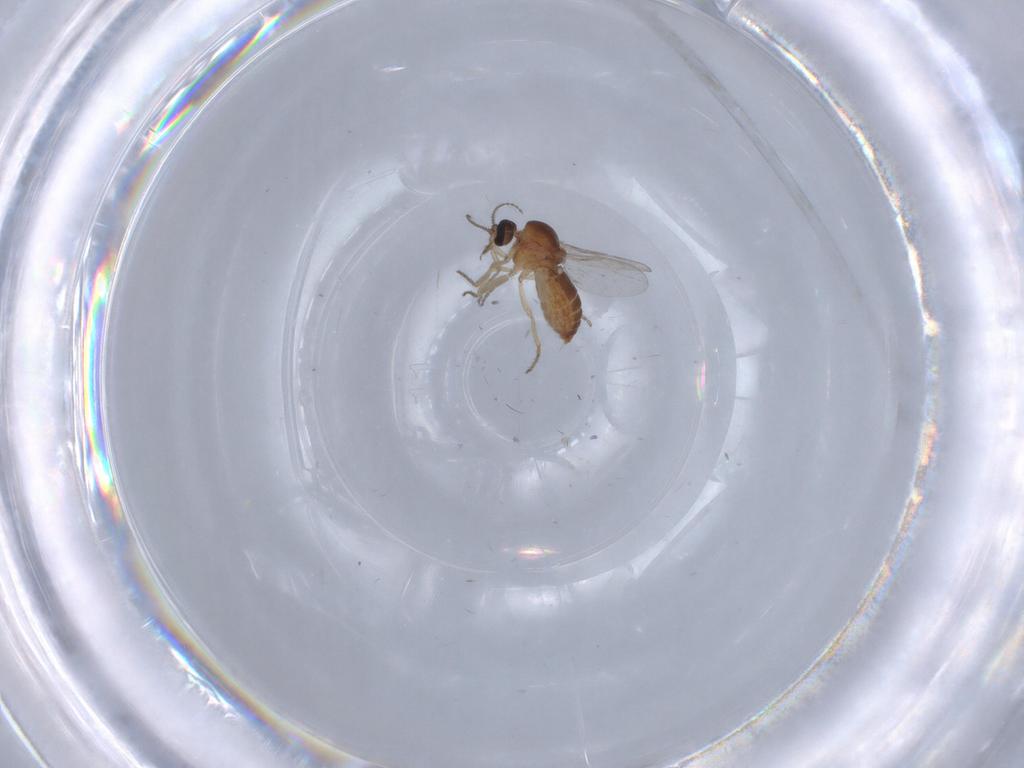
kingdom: Animalia
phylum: Arthropoda
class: Insecta
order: Diptera
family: Ceratopogonidae
